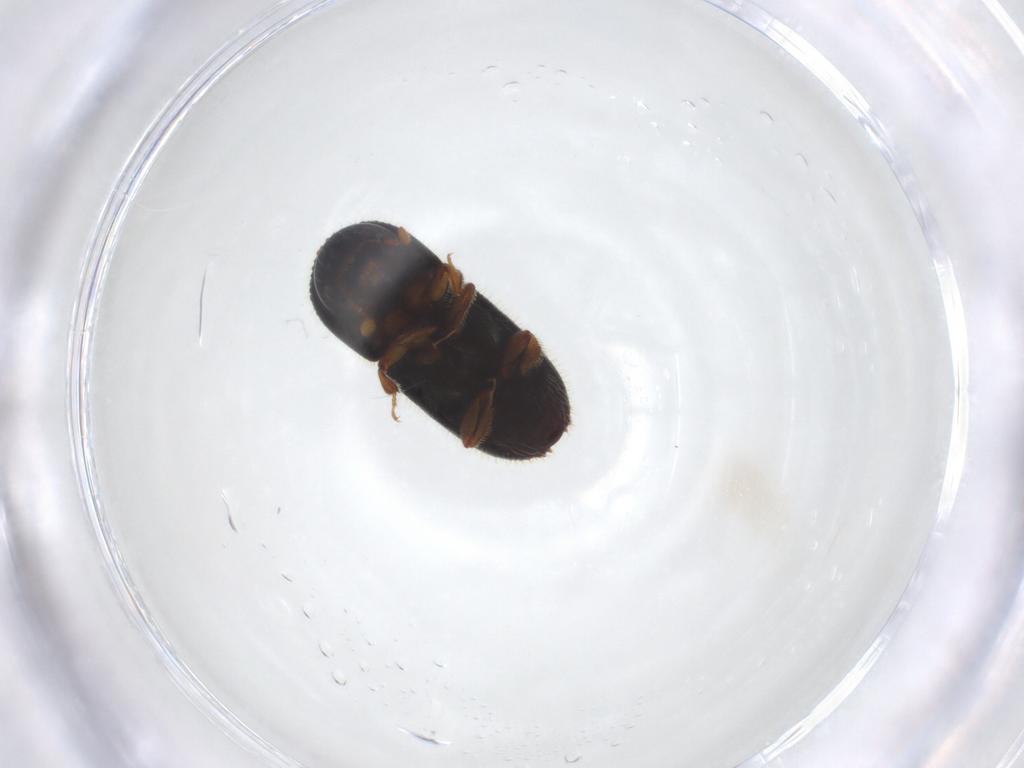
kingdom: Animalia
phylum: Arthropoda
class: Insecta
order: Coleoptera
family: Curculionidae
